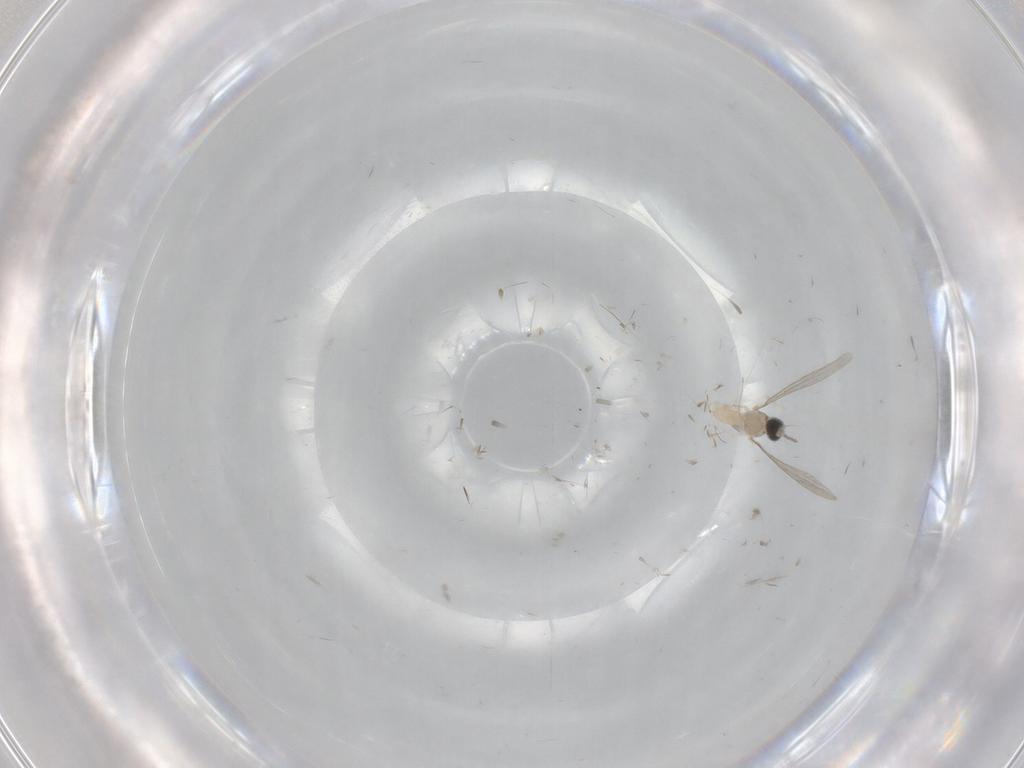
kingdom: Animalia
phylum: Arthropoda
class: Insecta
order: Diptera
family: Cecidomyiidae
